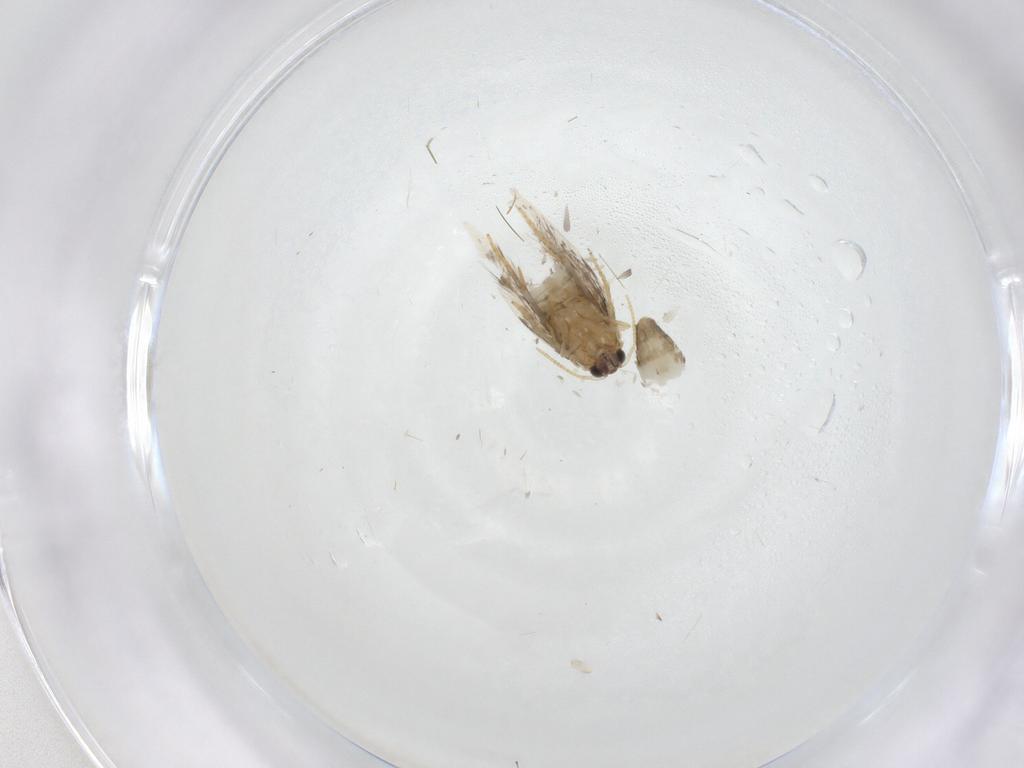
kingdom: Animalia
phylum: Arthropoda
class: Insecta
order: Lepidoptera
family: Copromorphidae
